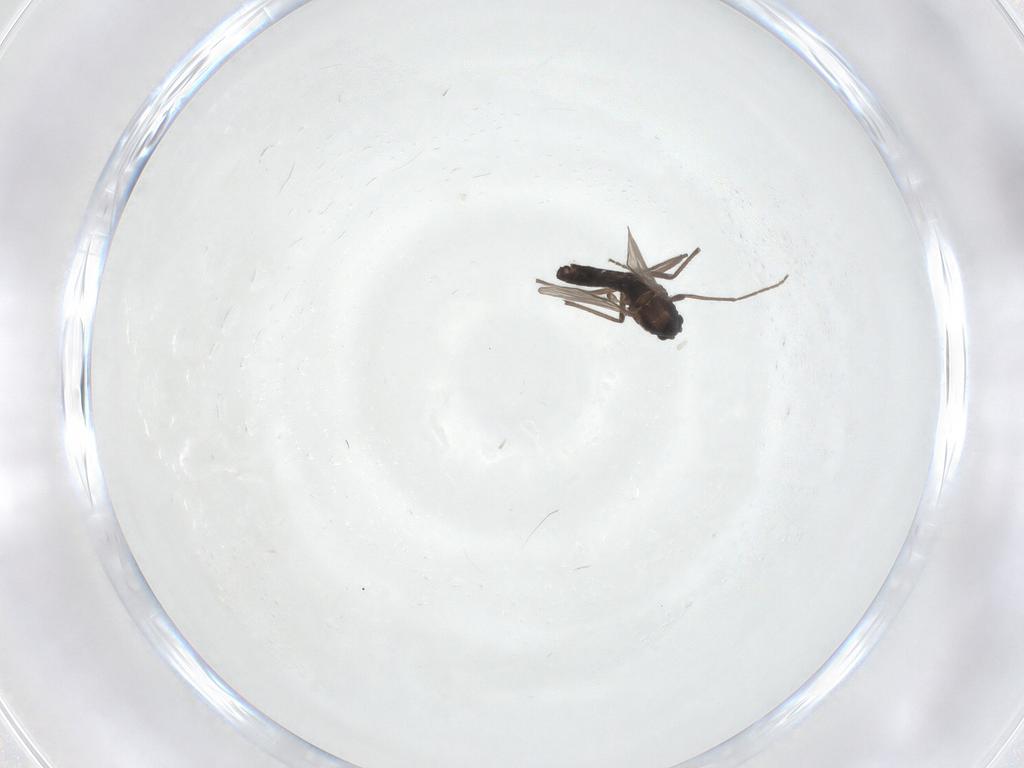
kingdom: Animalia
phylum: Arthropoda
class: Insecta
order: Diptera
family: Chironomidae
